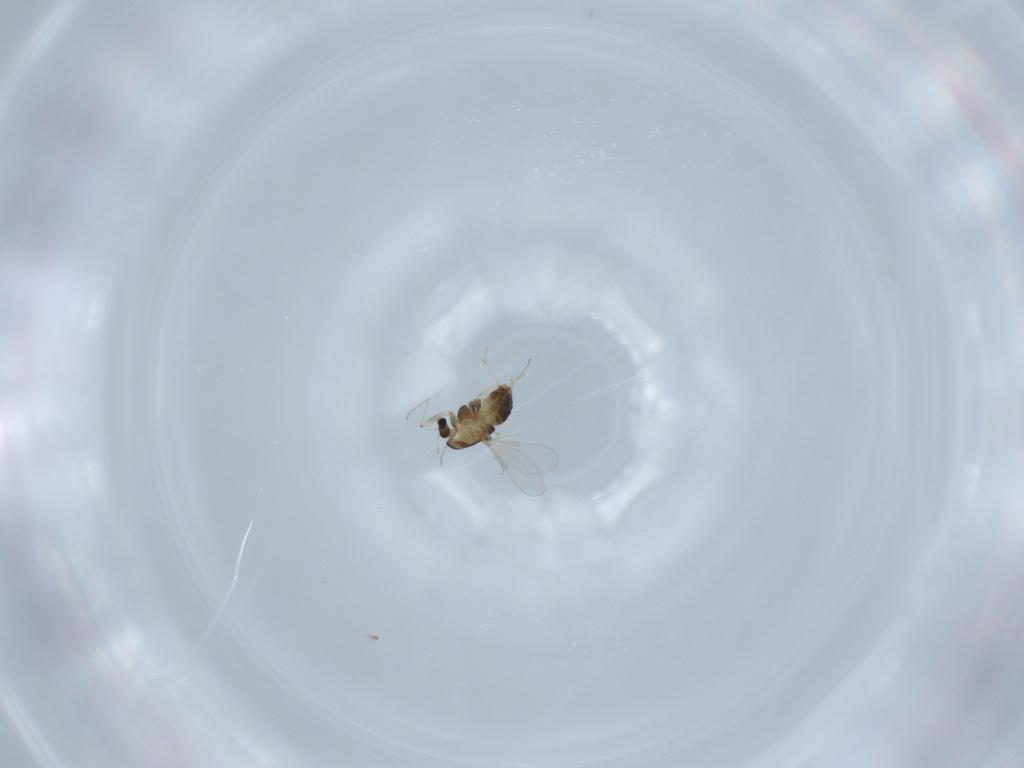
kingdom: Animalia
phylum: Arthropoda
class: Insecta
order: Diptera
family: Chironomidae
